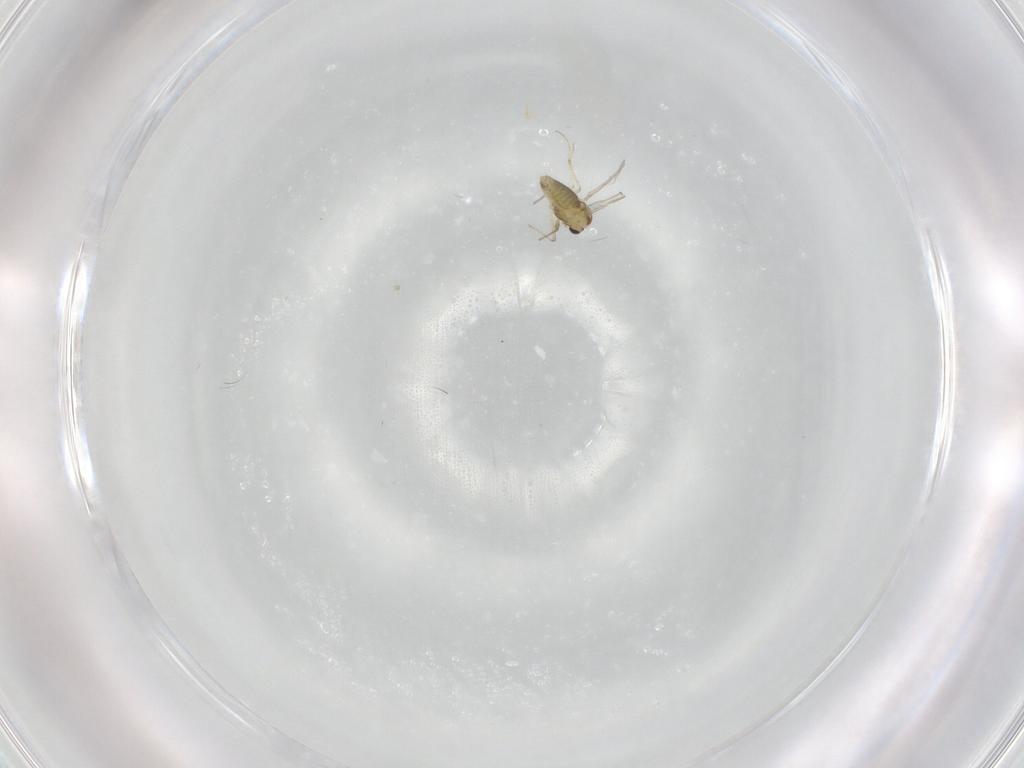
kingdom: Animalia
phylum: Arthropoda
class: Insecta
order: Diptera
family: Chironomidae
